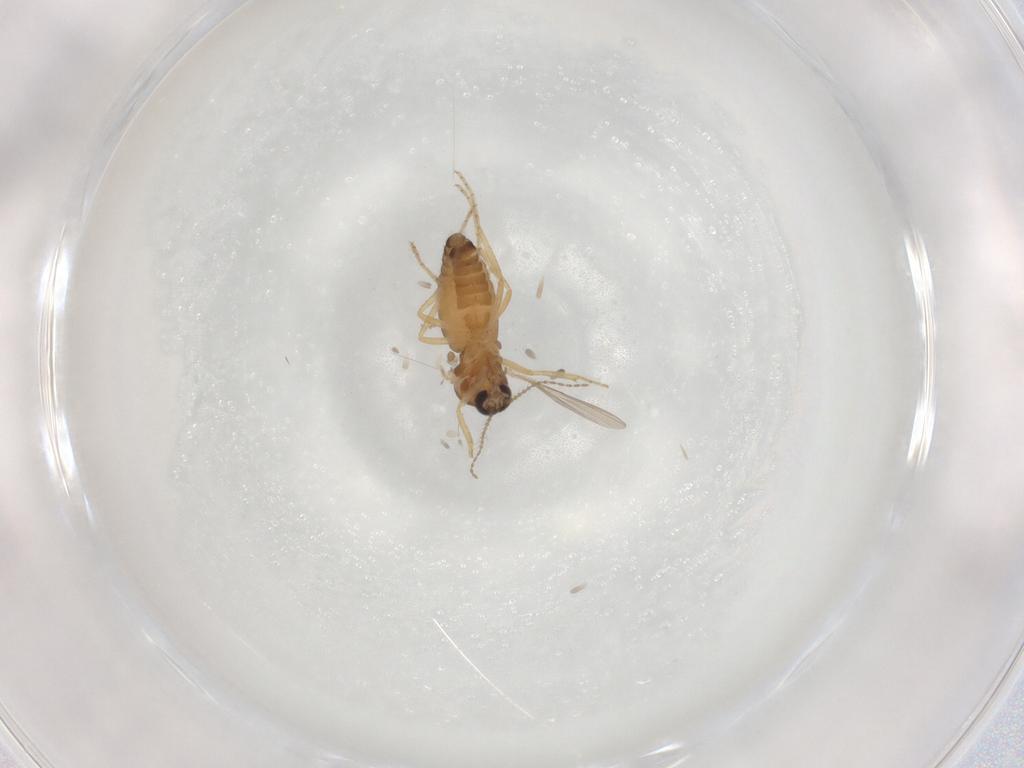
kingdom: Animalia
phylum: Arthropoda
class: Insecta
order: Diptera
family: Ceratopogonidae
